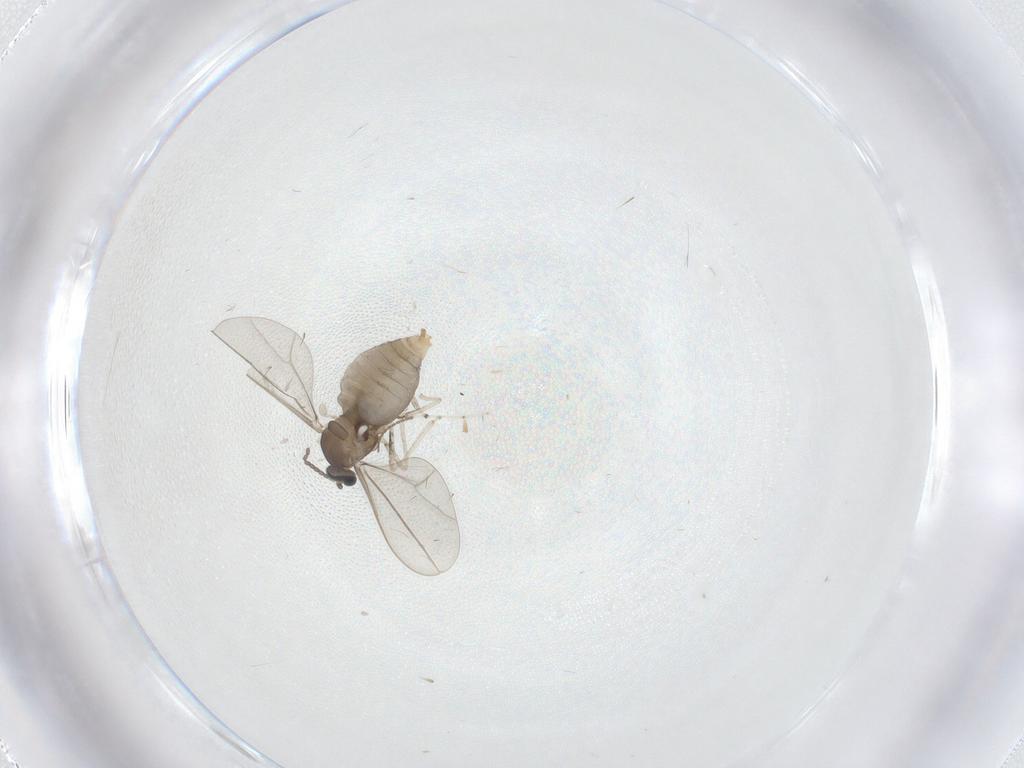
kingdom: Animalia
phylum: Arthropoda
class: Insecta
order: Diptera
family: Cecidomyiidae
